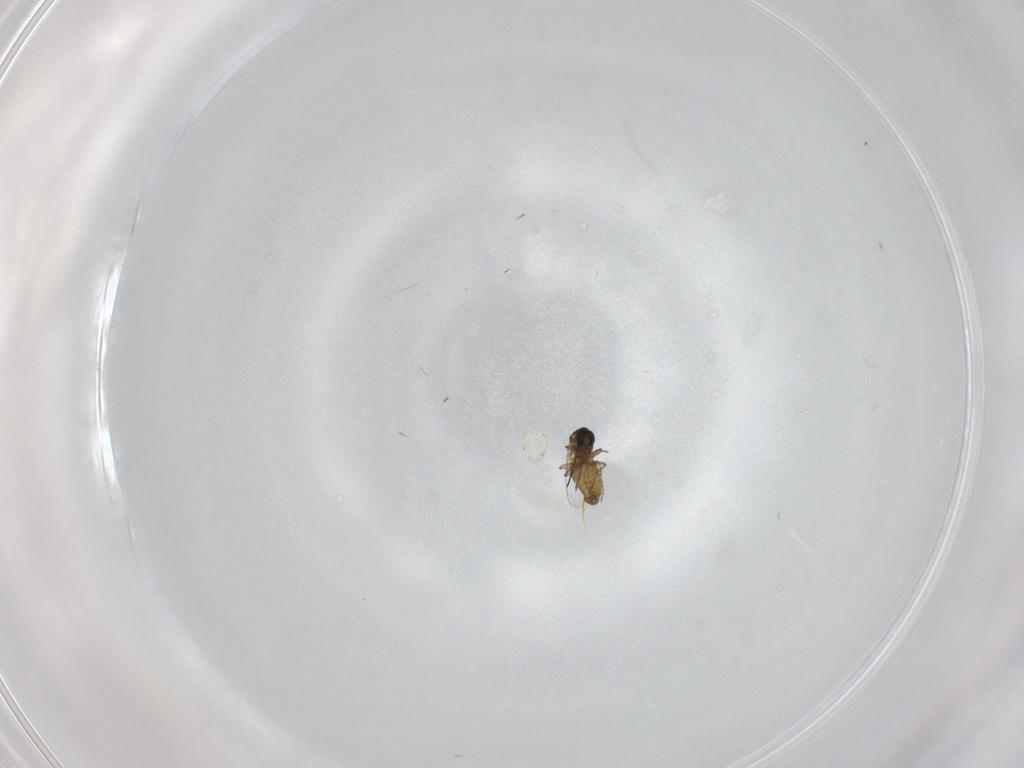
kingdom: Animalia
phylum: Arthropoda
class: Insecta
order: Diptera
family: Ceratopogonidae
